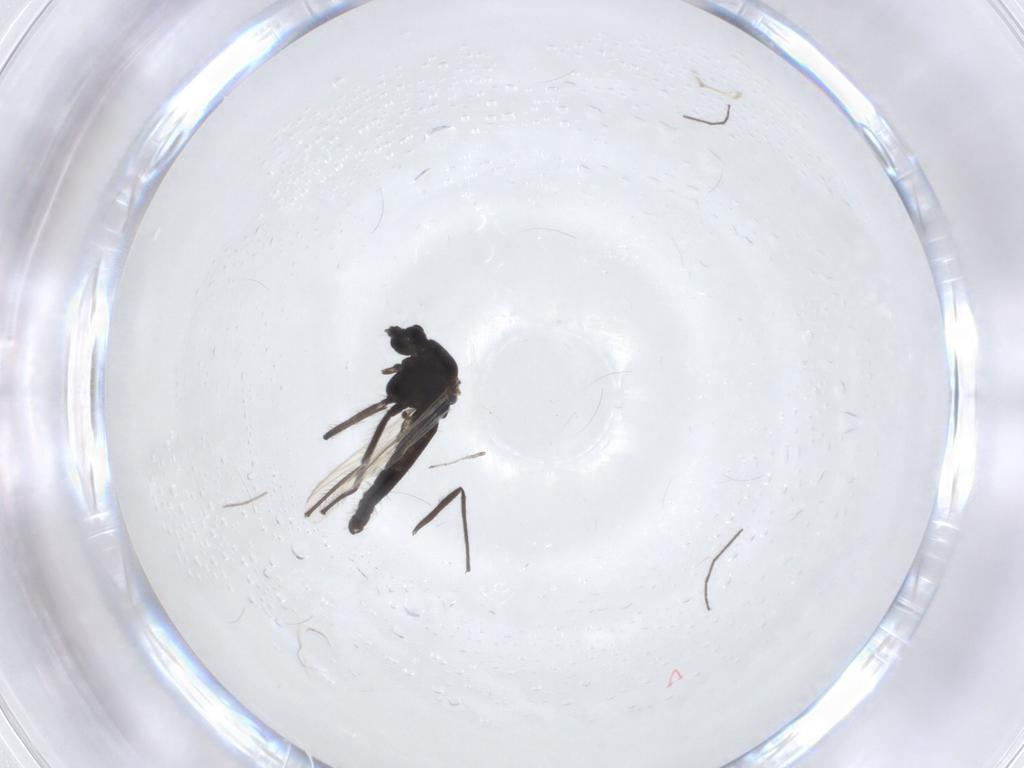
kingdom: Animalia
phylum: Arthropoda
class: Insecta
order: Diptera
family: Chironomidae
